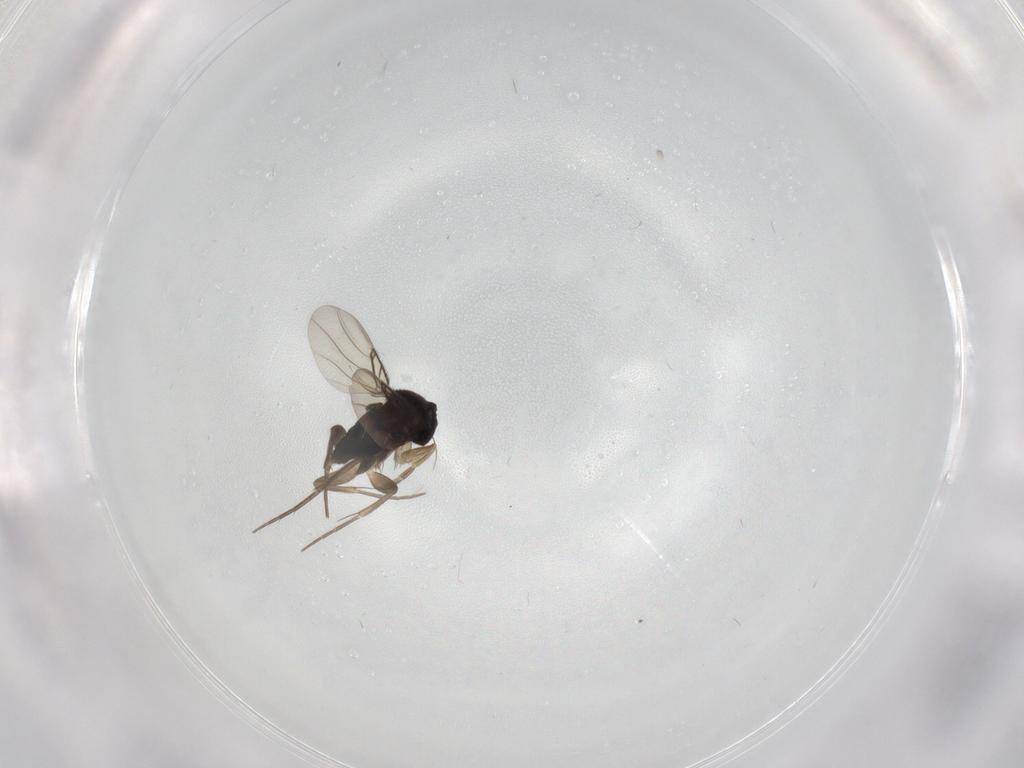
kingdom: Animalia
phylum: Arthropoda
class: Insecta
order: Diptera
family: Phoridae
